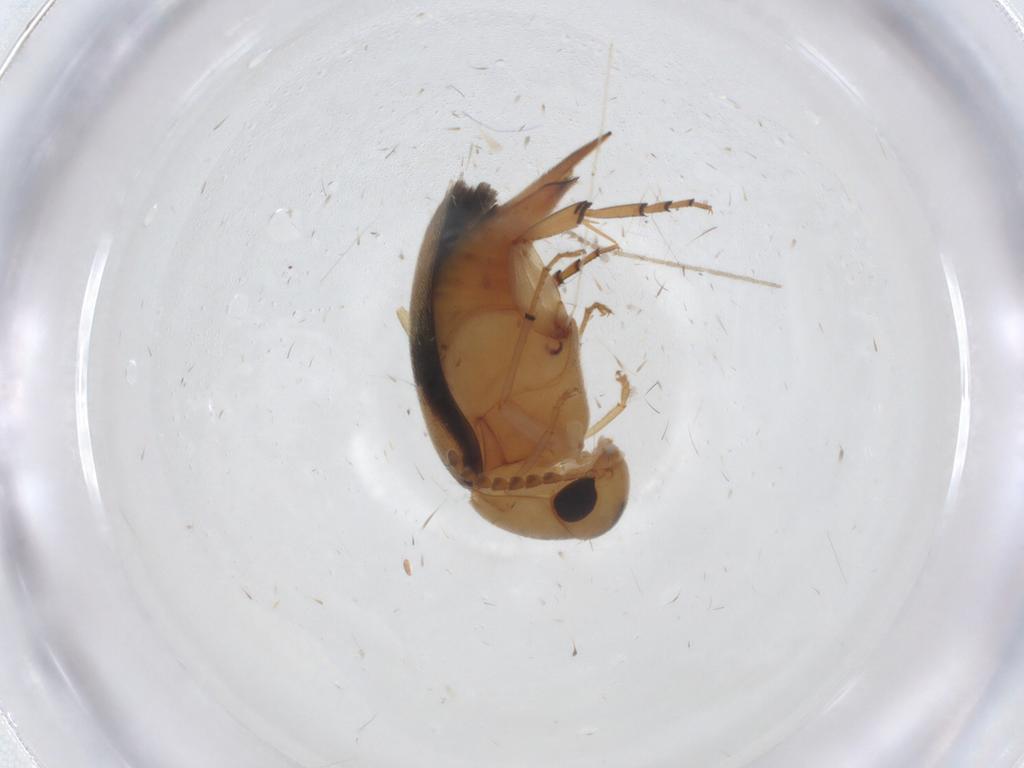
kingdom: Animalia
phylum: Arthropoda
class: Insecta
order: Coleoptera
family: Mordellidae
